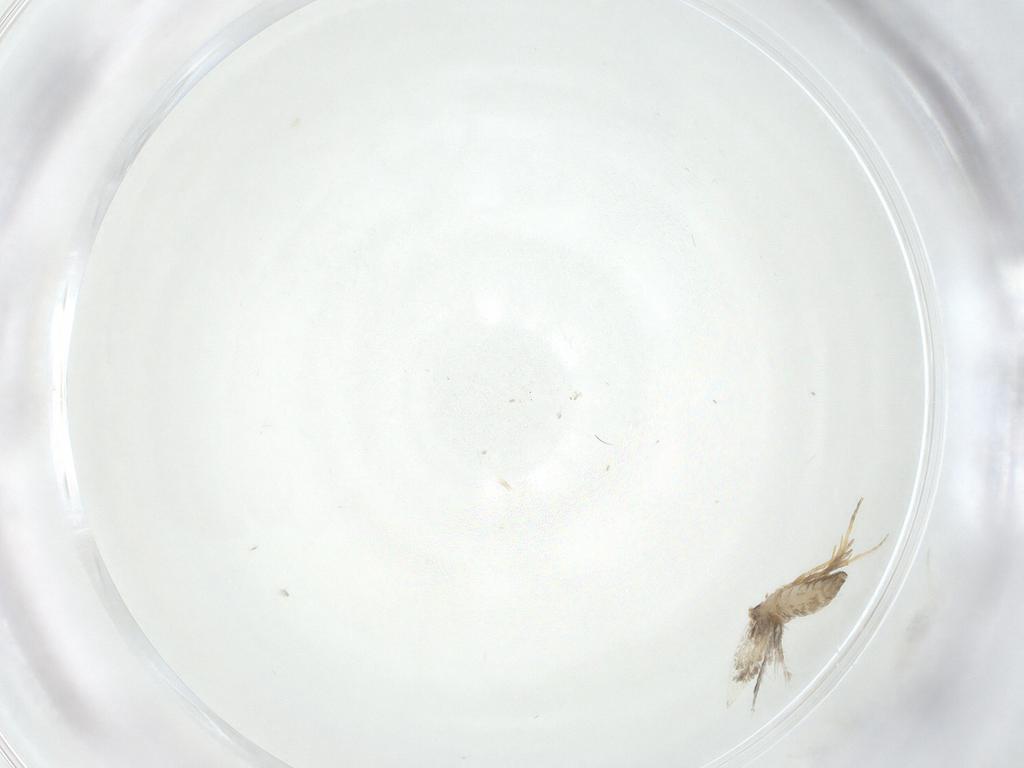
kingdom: Animalia
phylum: Arthropoda
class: Insecta
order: Lepidoptera
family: Nepticulidae
